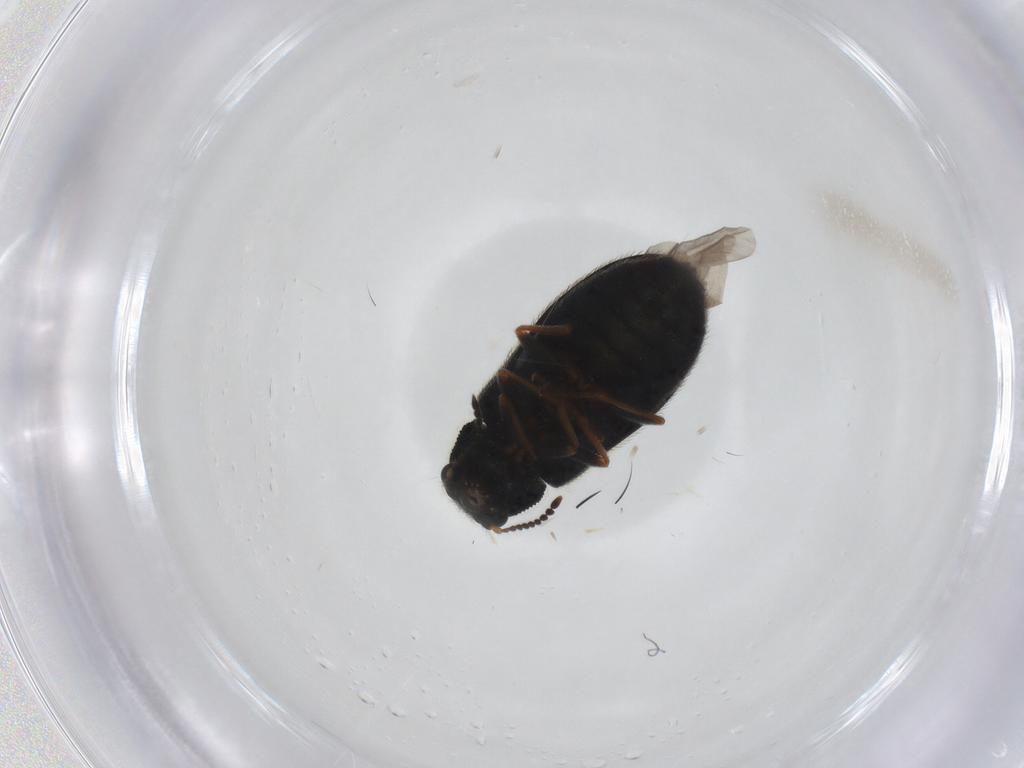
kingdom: Animalia
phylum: Arthropoda
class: Insecta
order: Coleoptera
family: Melyridae
